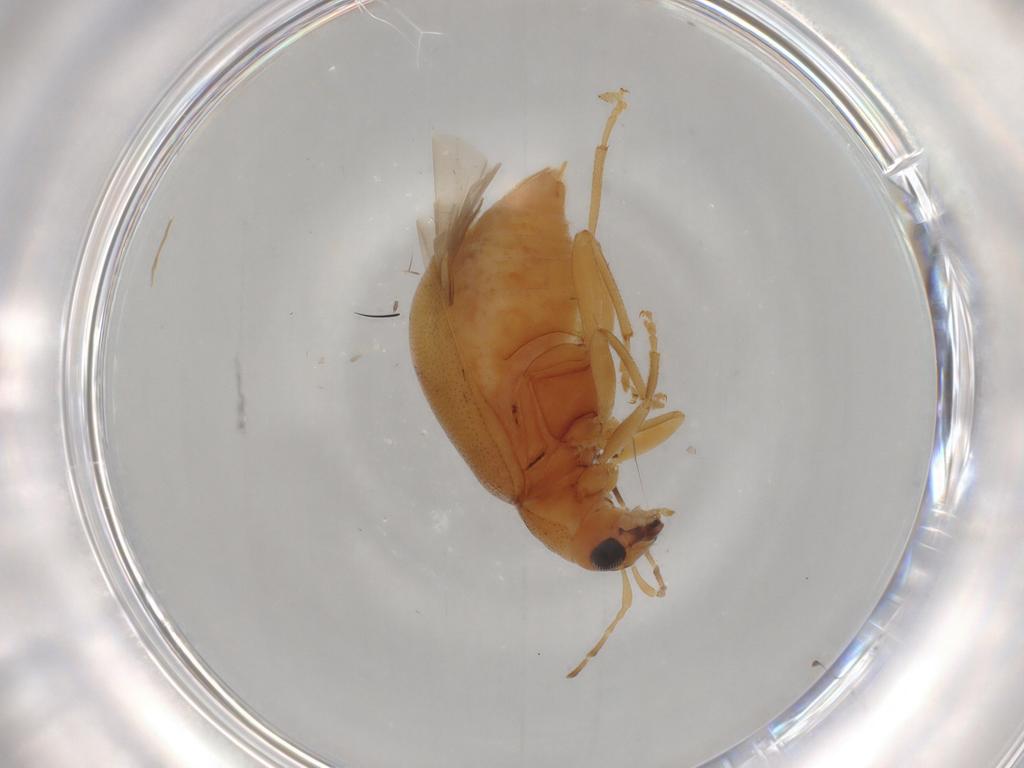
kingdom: Animalia
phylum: Arthropoda
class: Insecta
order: Coleoptera
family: Chrysomelidae
